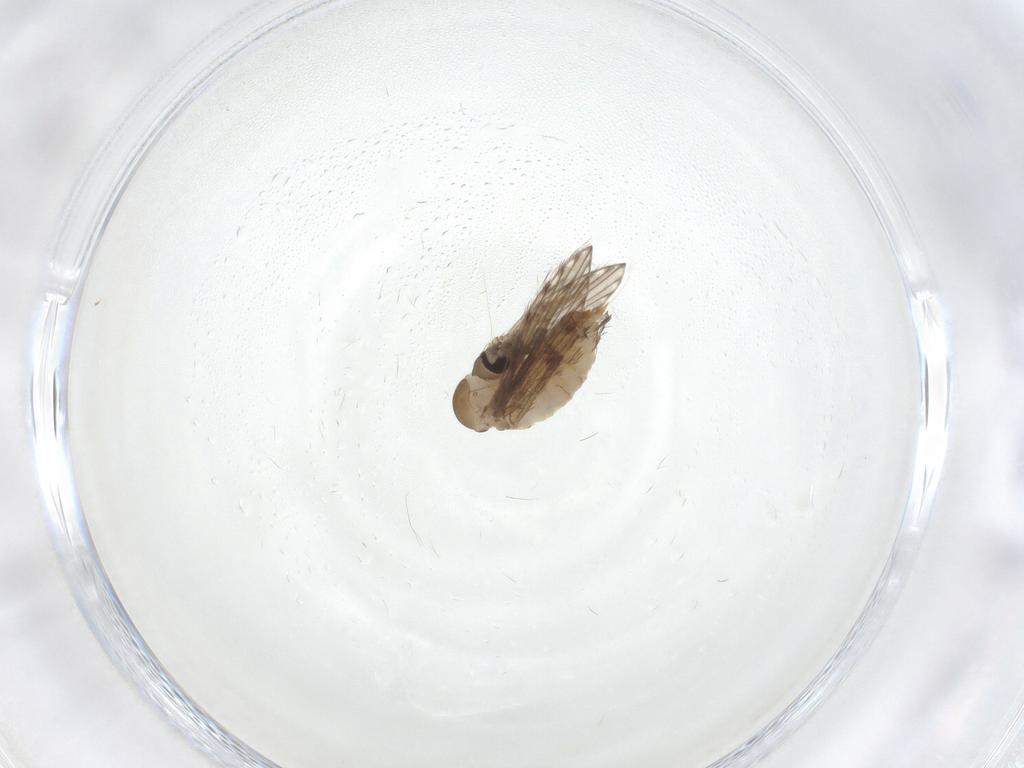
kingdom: Animalia
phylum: Arthropoda
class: Insecta
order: Diptera
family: Psychodidae
